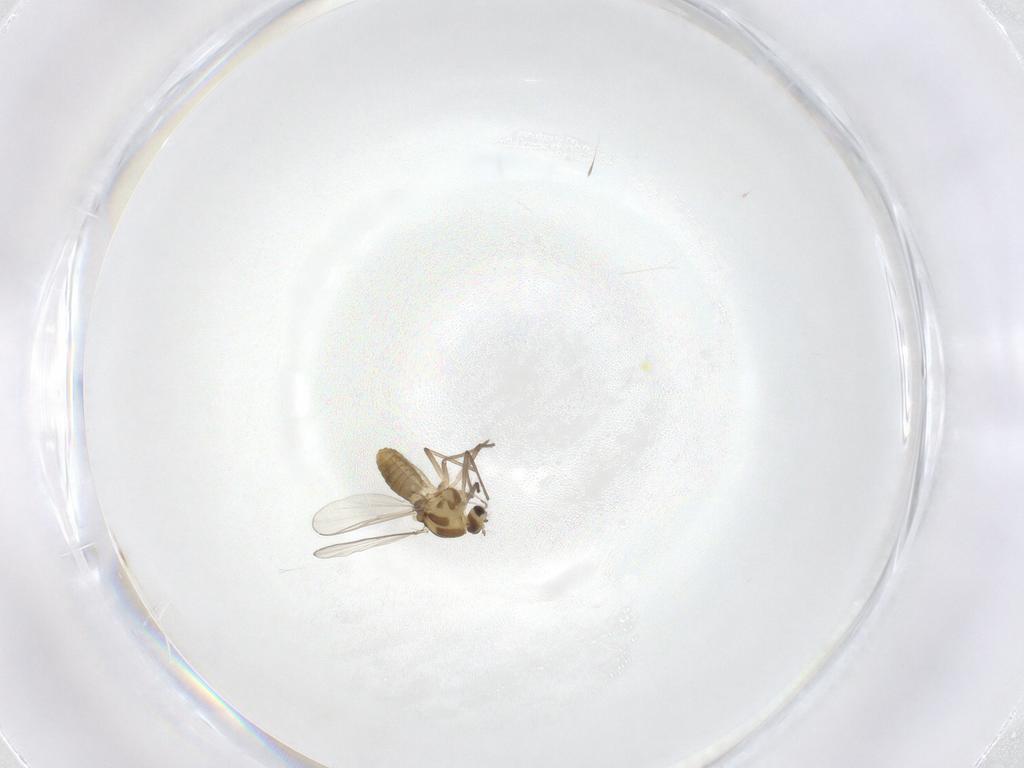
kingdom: Animalia
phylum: Arthropoda
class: Insecta
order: Diptera
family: Chironomidae
